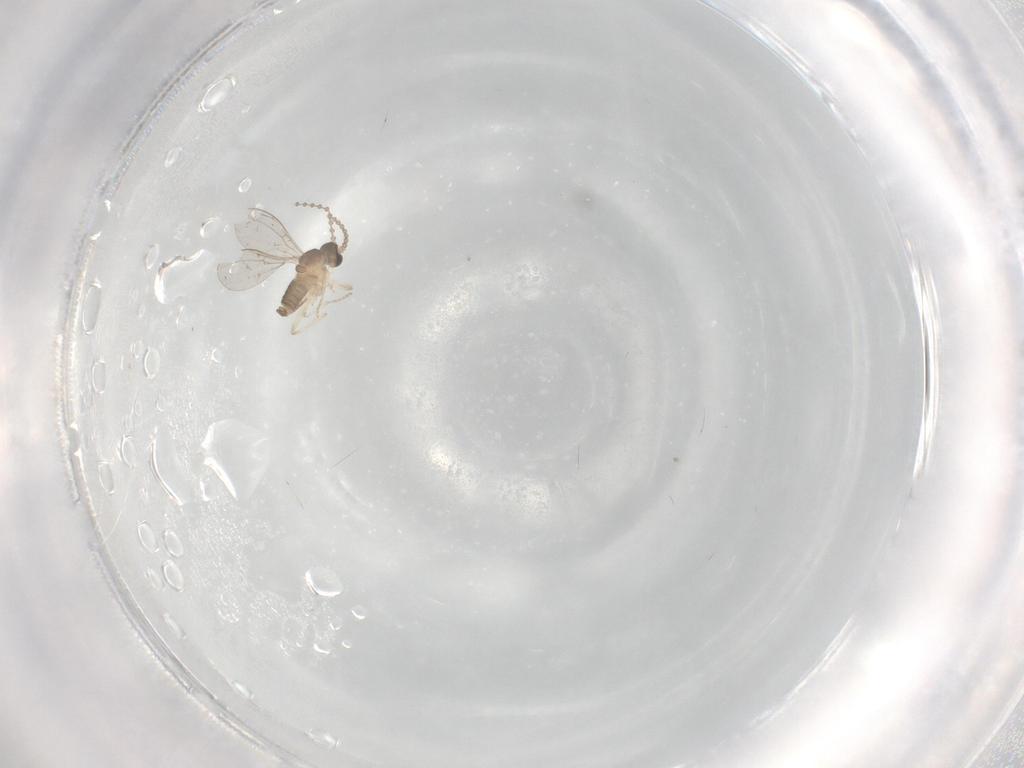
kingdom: Animalia
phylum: Arthropoda
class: Insecta
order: Diptera
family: Cecidomyiidae
